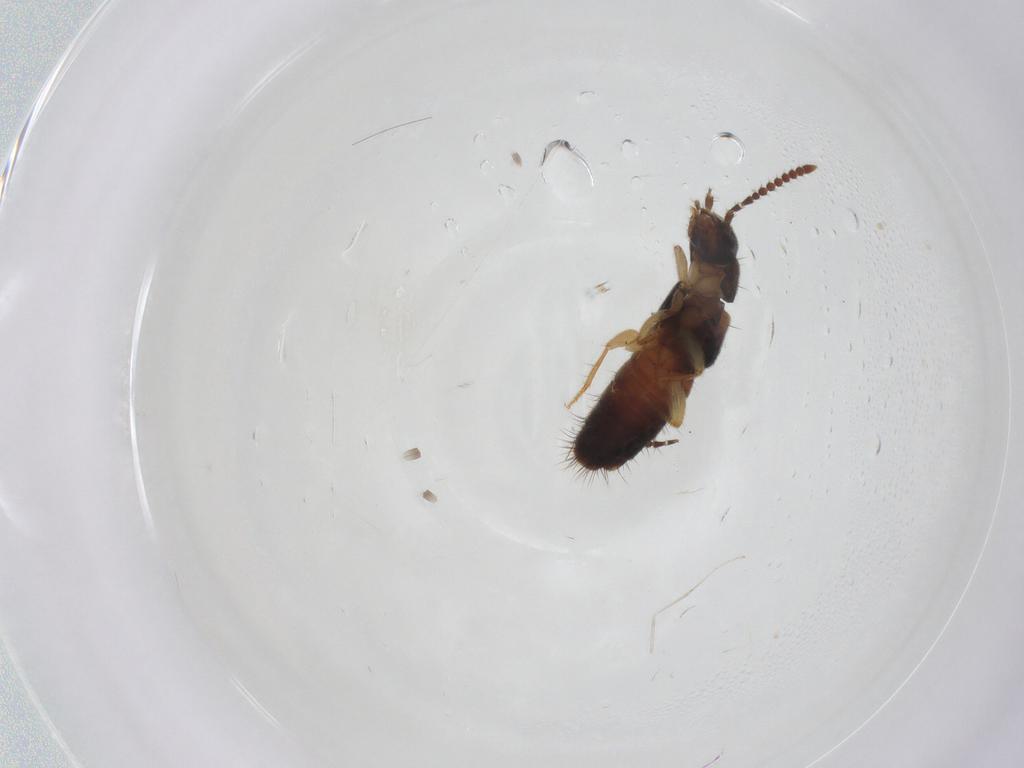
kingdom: Animalia
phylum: Arthropoda
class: Insecta
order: Coleoptera
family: Staphylinidae
